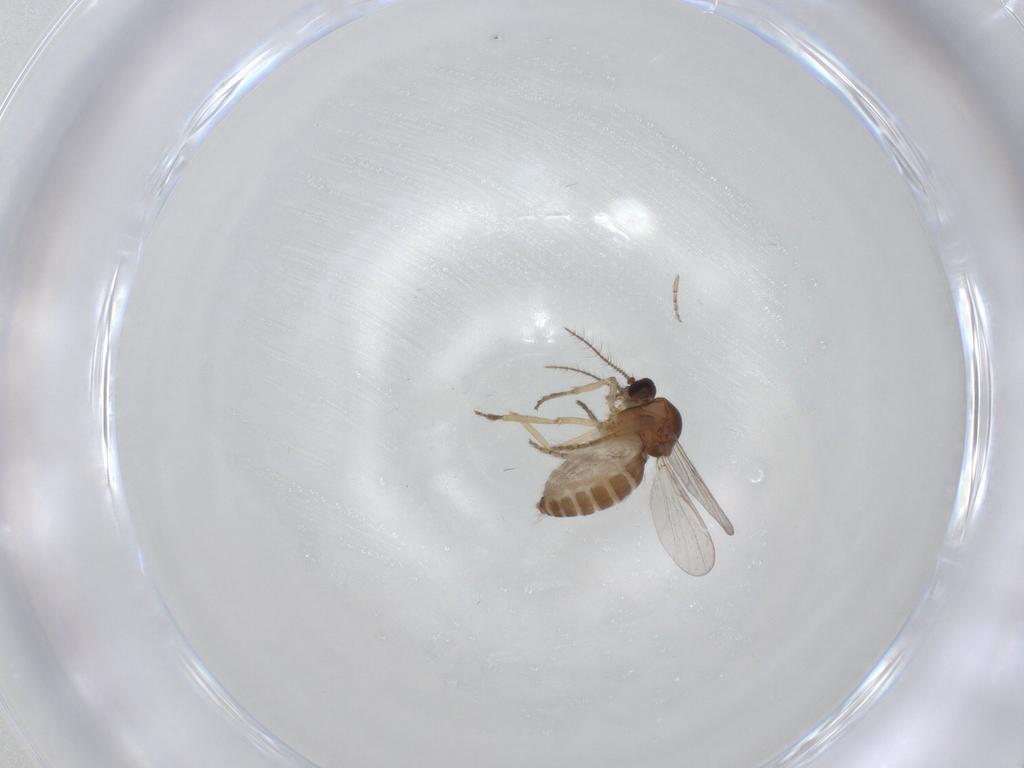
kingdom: Animalia
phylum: Arthropoda
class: Insecta
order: Diptera
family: Ceratopogonidae
